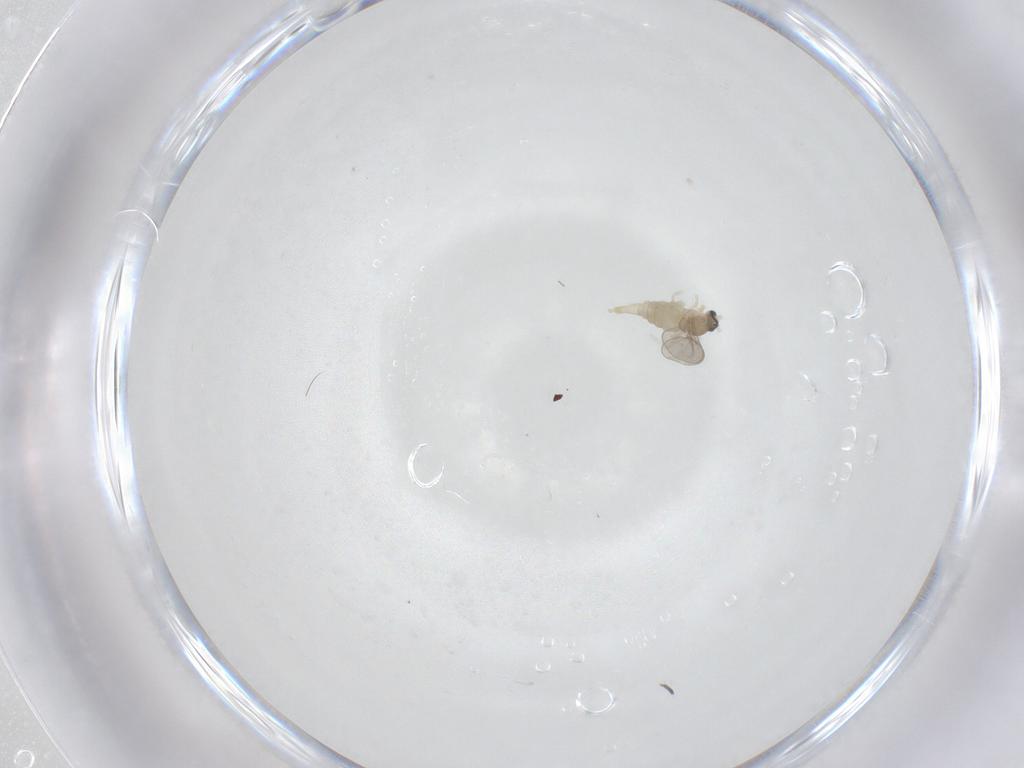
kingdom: Animalia
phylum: Arthropoda
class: Insecta
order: Diptera
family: Cecidomyiidae
